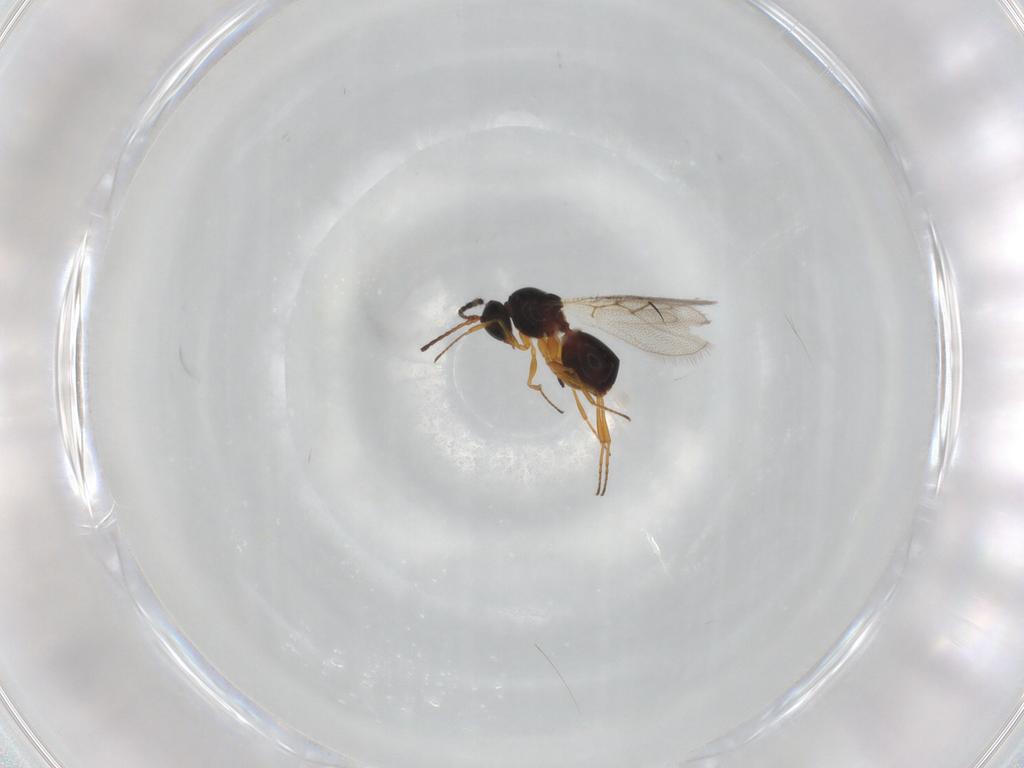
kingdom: Animalia
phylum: Arthropoda
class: Insecta
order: Hymenoptera
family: Figitidae
